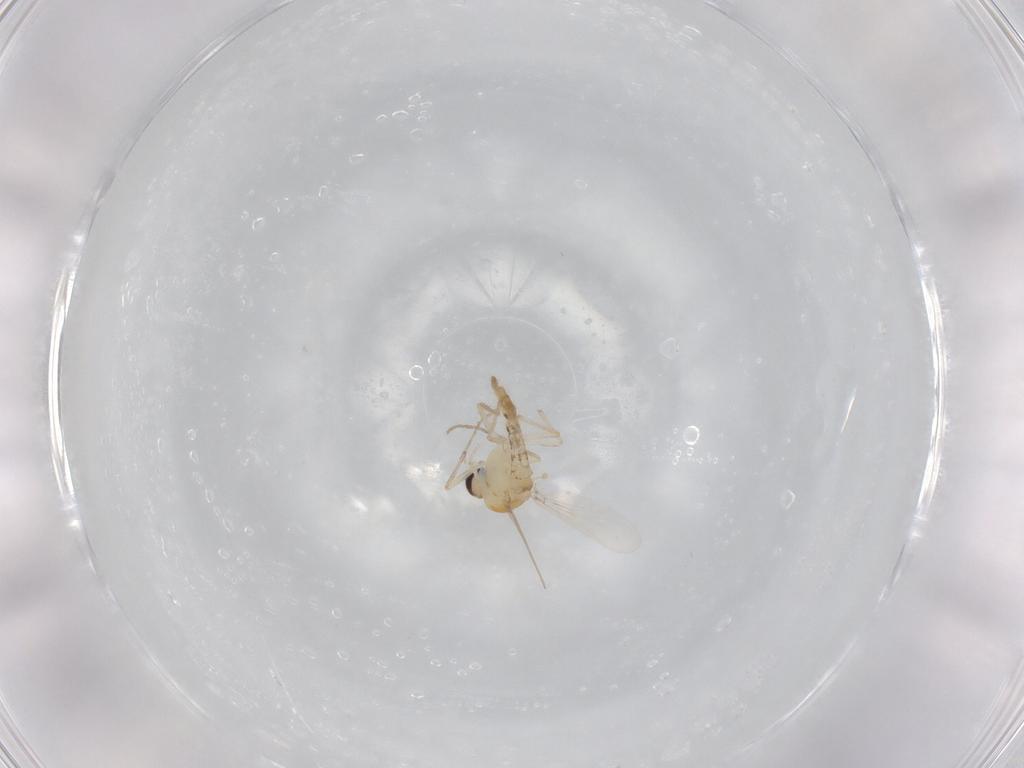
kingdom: Animalia
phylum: Arthropoda
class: Insecta
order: Diptera
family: Chironomidae
